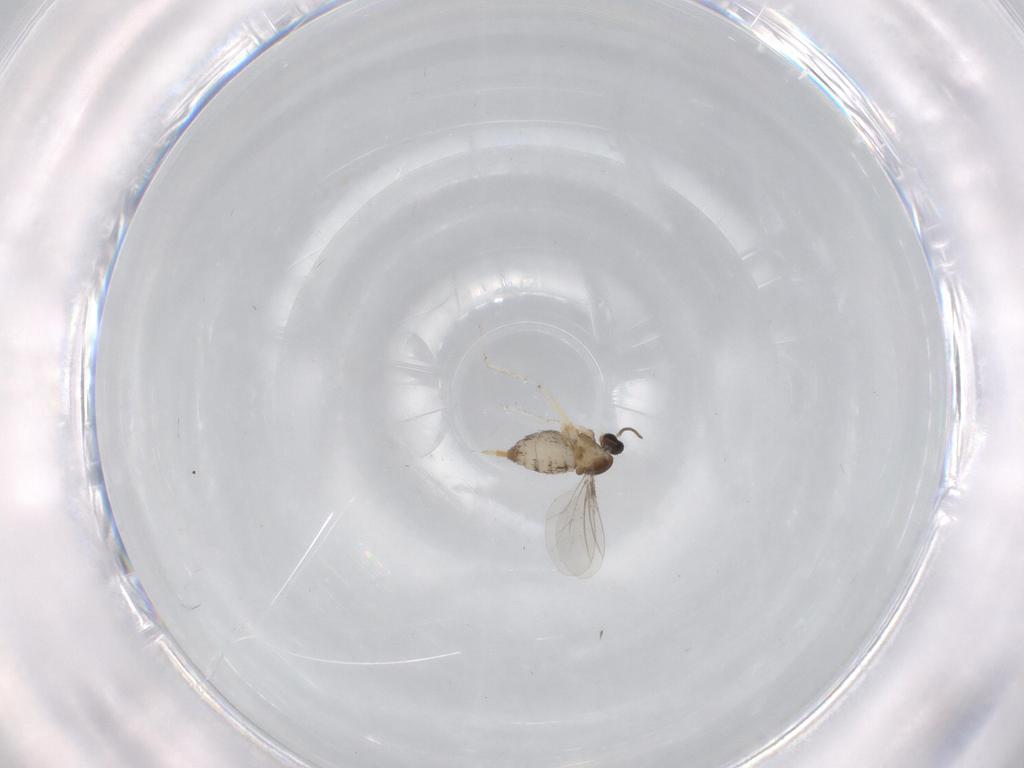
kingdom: Animalia
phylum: Arthropoda
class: Insecta
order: Diptera
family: Cecidomyiidae
